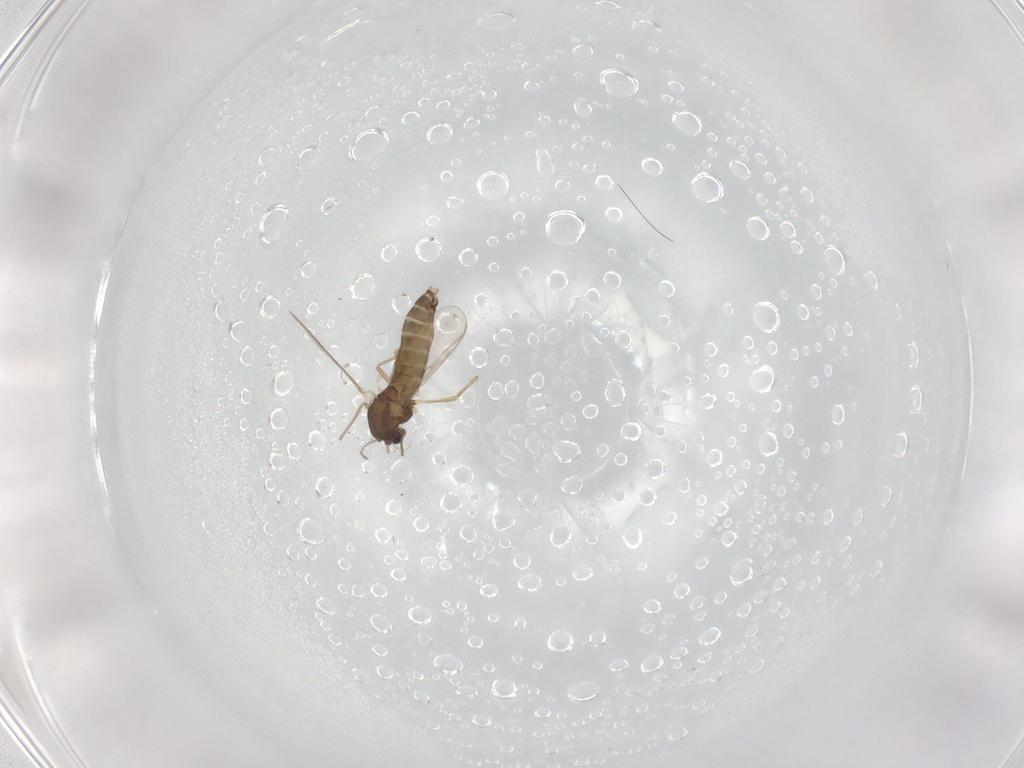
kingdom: Animalia
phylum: Arthropoda
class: Insecta
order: Diptera
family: Chironomidae
